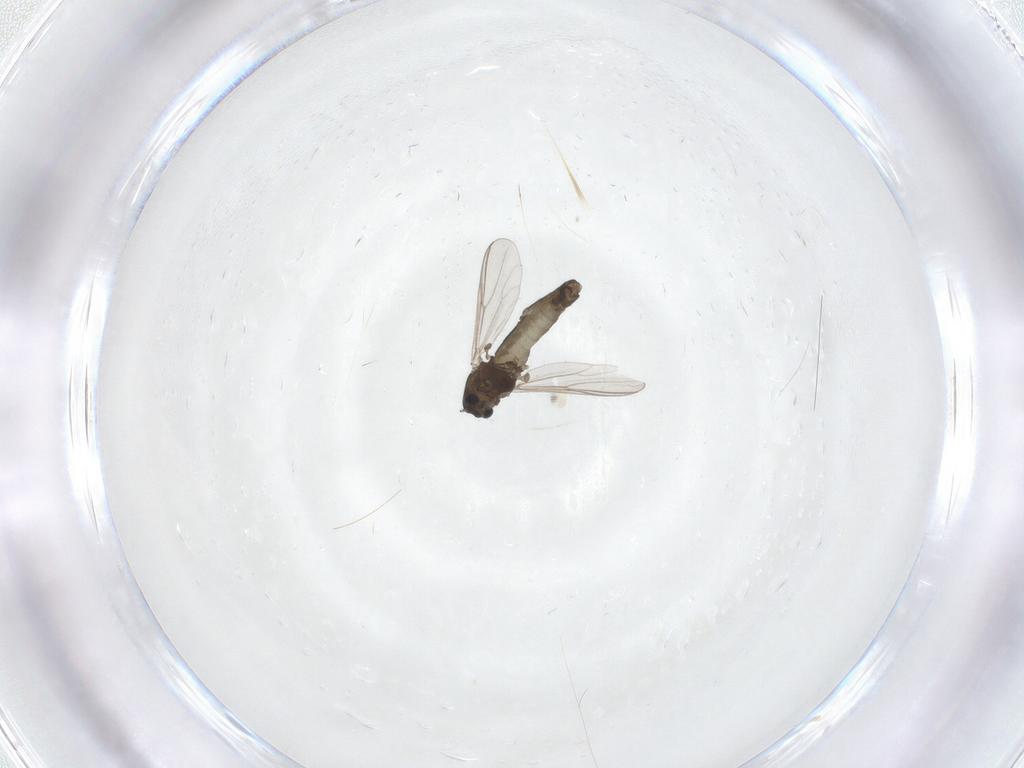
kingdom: Animalia
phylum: Arthropoda
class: Insecta
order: Diptera
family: Chironomidae
